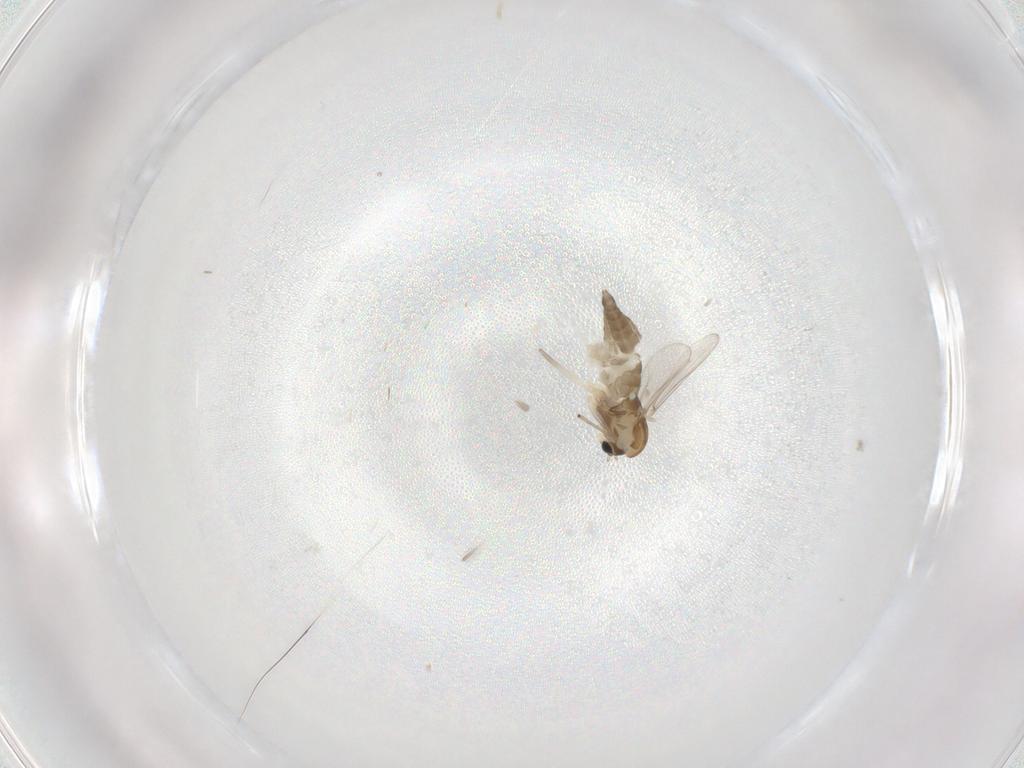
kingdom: Animalia
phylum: Arthropoda
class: Insecta
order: Diptera
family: Chironomidae
